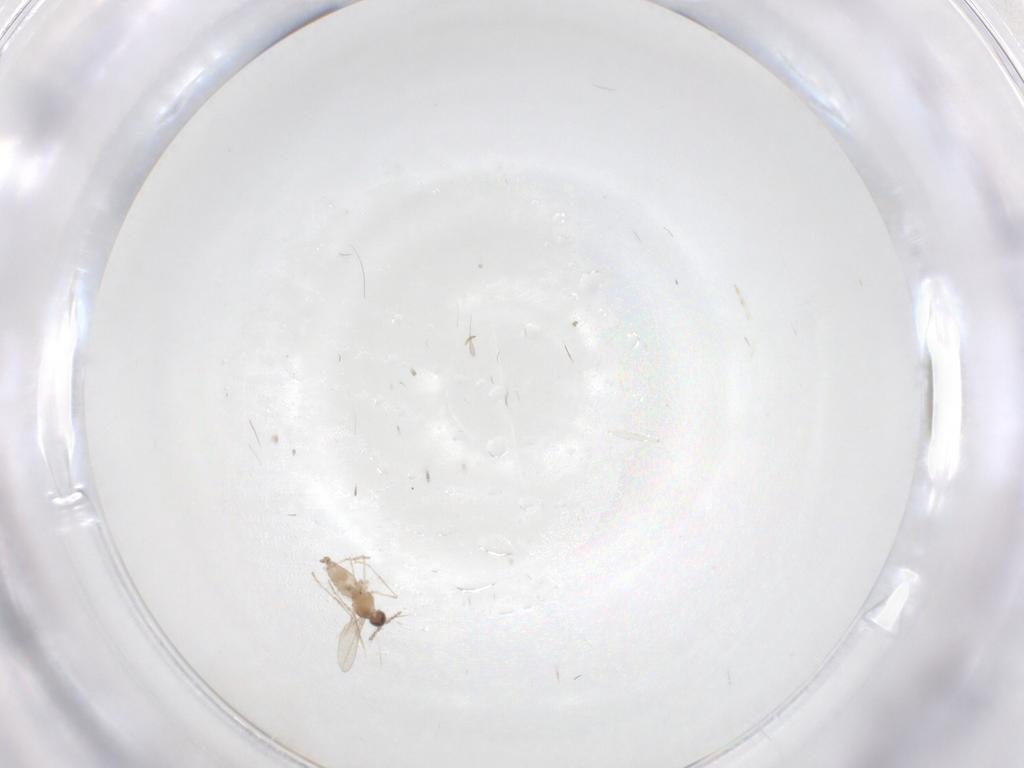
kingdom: Animalia
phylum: Arthropoda
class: Insecta
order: Diptera
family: Cecidomyiidae
